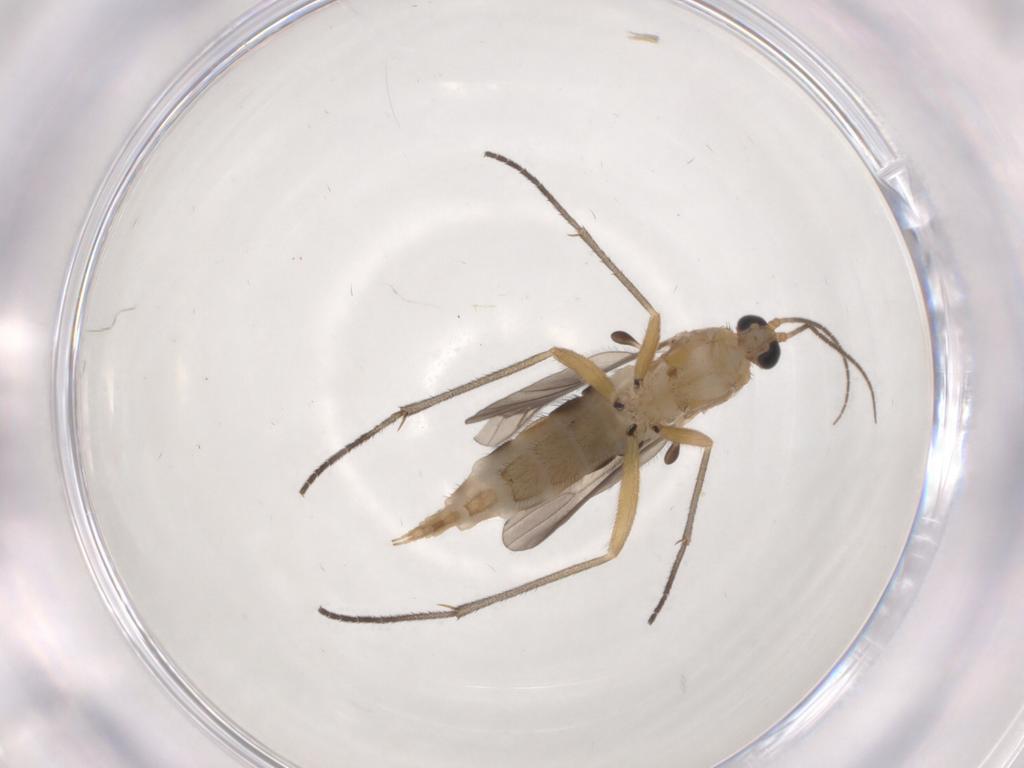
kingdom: Animalia
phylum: Arthropoda
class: Insecta
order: Diptera
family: Sciaridae
